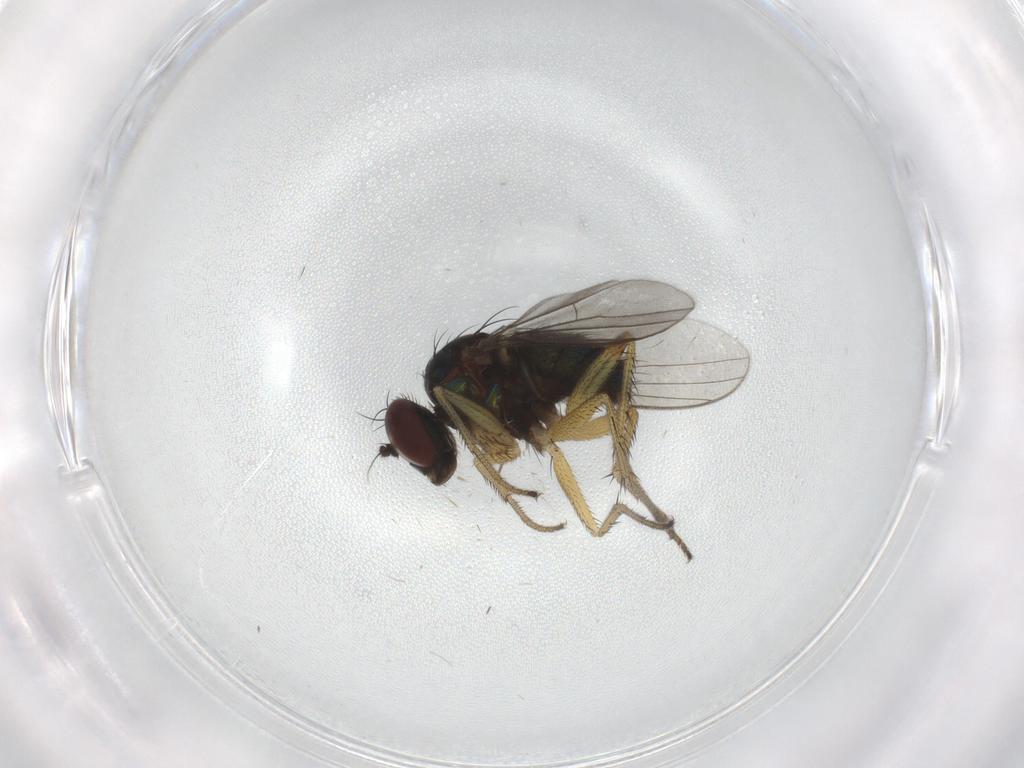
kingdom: Animalia
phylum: Arthropoda
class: Insecta
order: Diptera
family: Dolichopodidae
